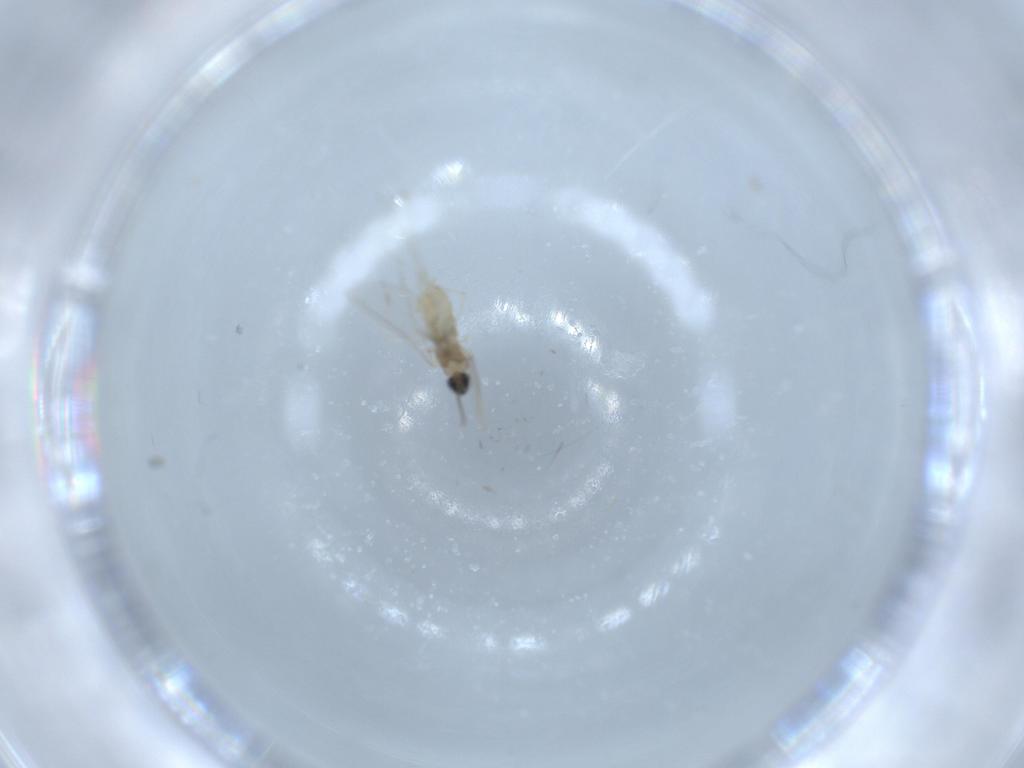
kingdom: Animalia
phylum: Arthropoda
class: Insecta
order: Diptera
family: Cecidomyiidae
